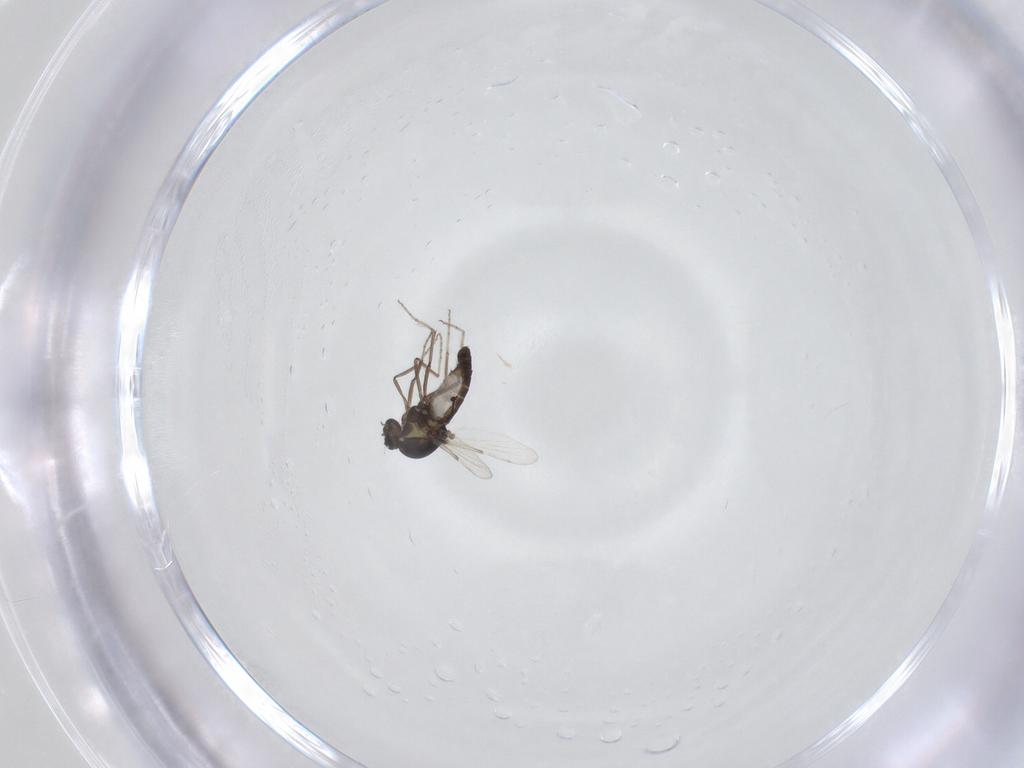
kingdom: Animalia
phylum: Arthropoda
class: Insecta
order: Diptera
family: Ceratopogonidae
